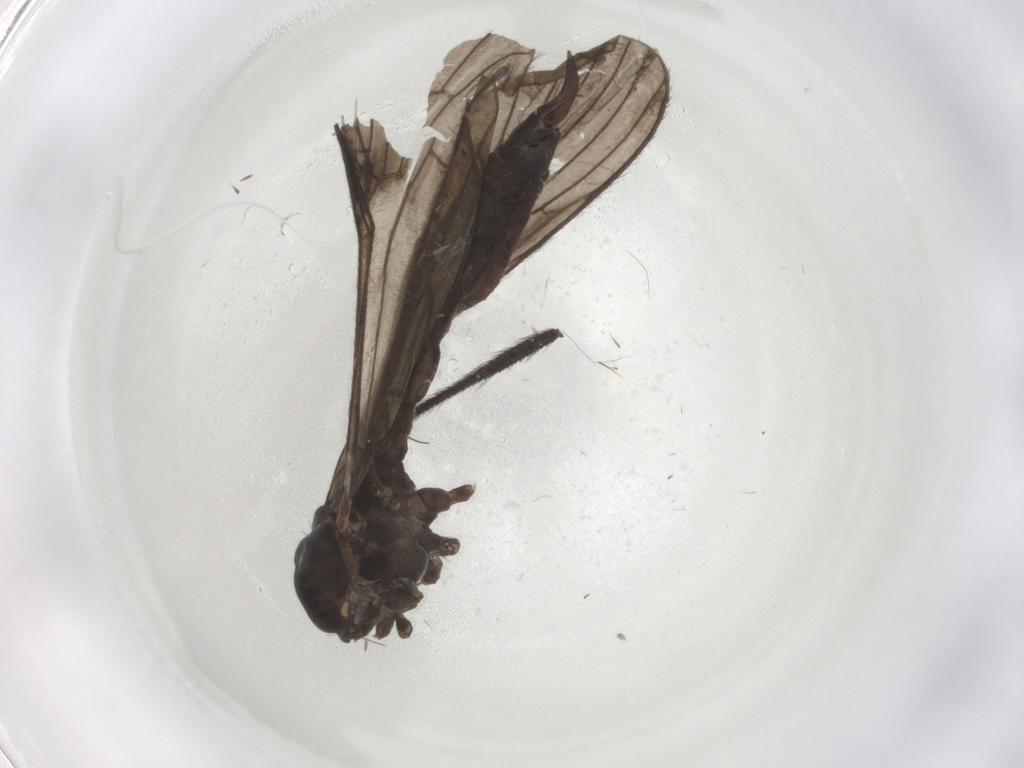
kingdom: Animalia
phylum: Arthropoda
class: Insecta
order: Diptera
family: Limoniidae
